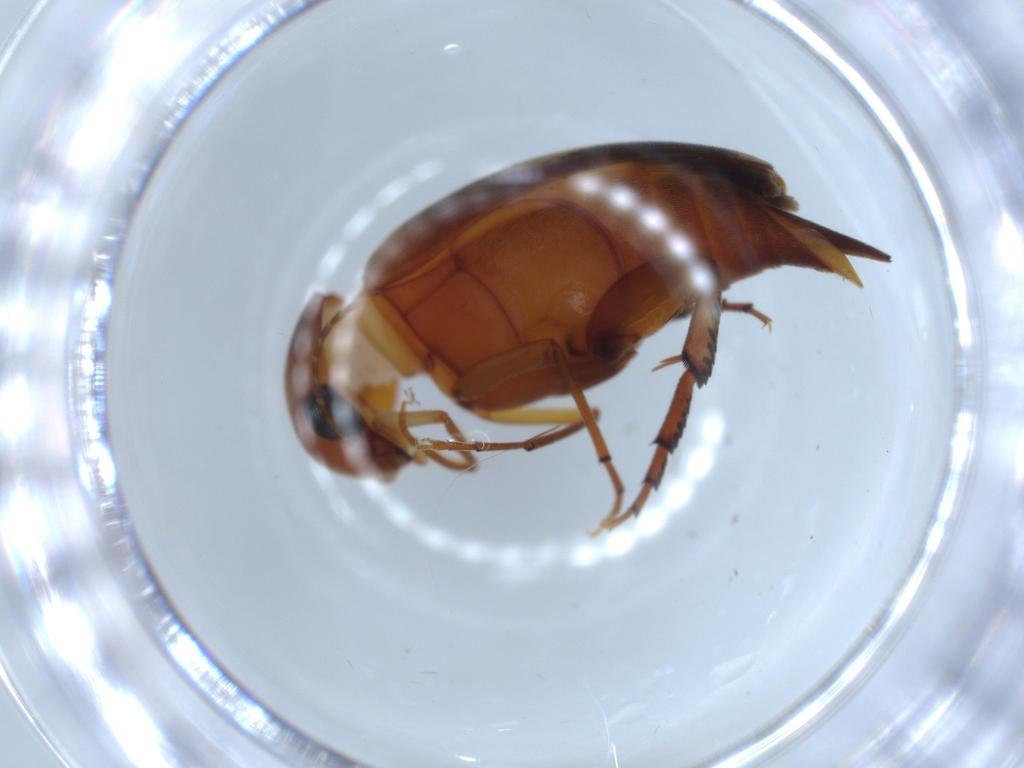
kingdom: Animalia
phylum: Arthropoda
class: Insecta
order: Coleoptera
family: Mordellidae
